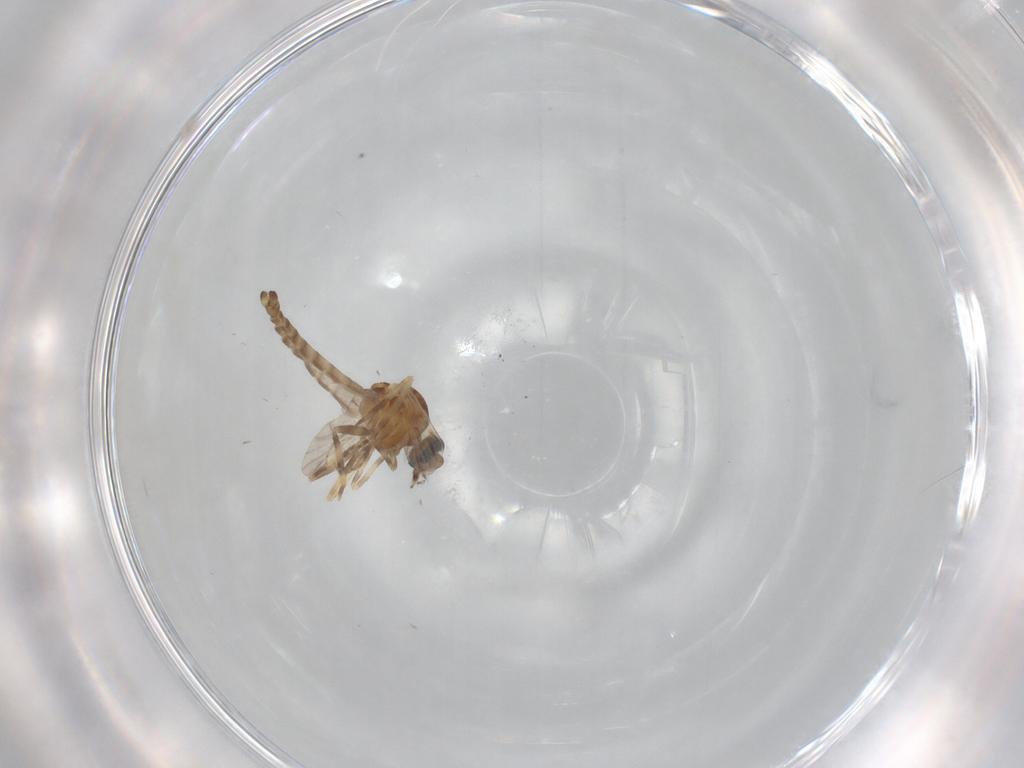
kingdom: Animalia
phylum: Arthropoda
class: Insecta
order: Diptera
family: Ceratopogonidae
